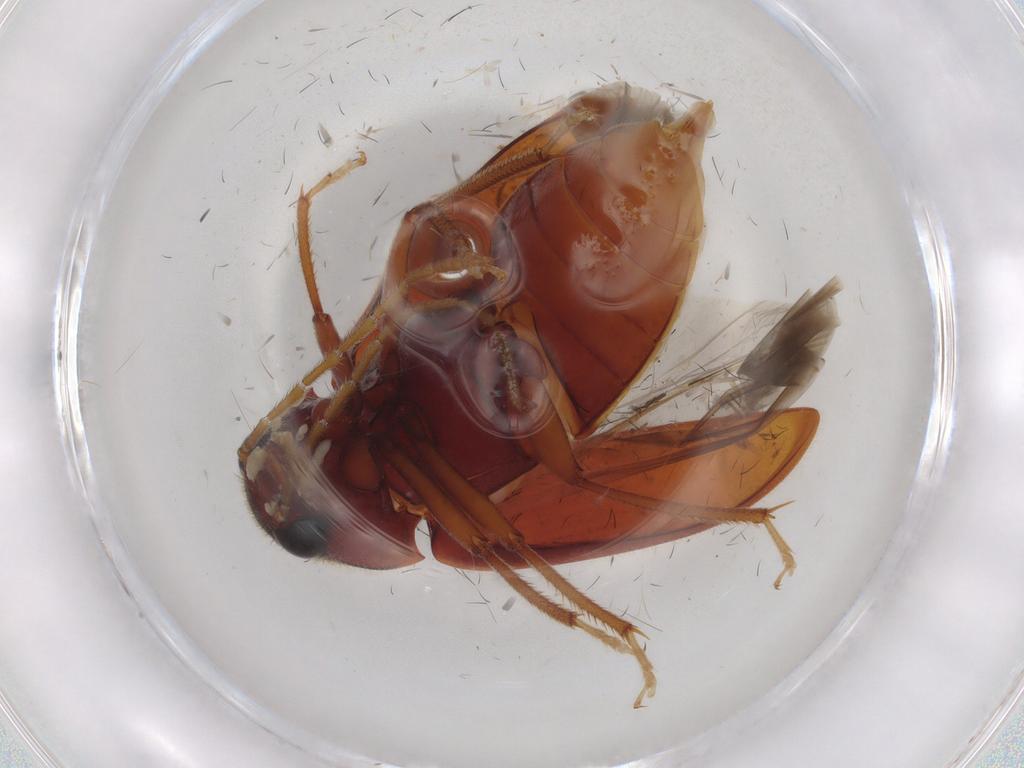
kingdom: Animalia
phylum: Arthropoda
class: Insecta
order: Coleoptera
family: Ptilodactylidae
